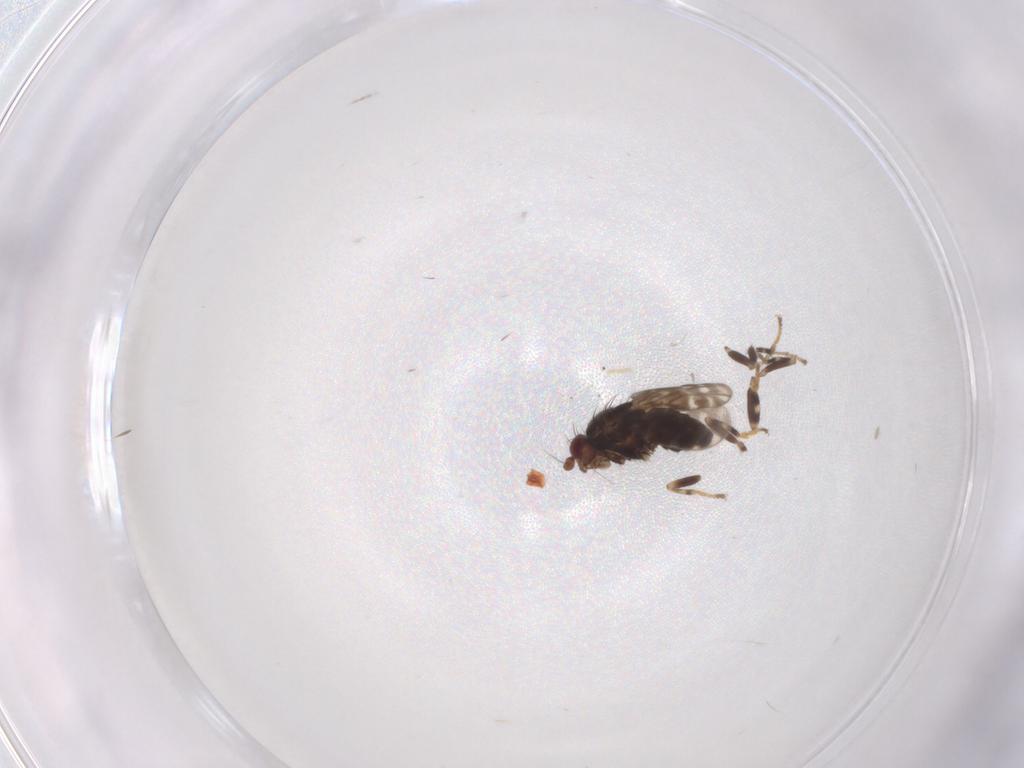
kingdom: Animalia
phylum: Arthropoda
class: Insecta
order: Diptera
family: Sphaeroceridae
